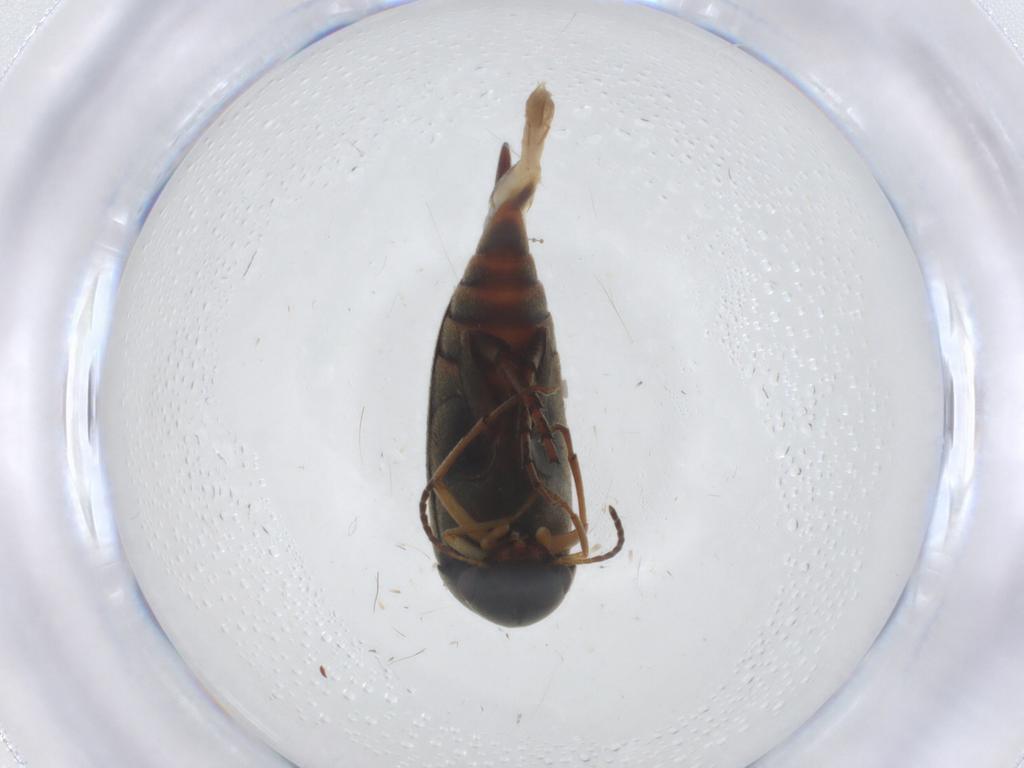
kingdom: Animalia
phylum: Arthropoda
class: Insecta
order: Coleoptera
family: Mordellidae
